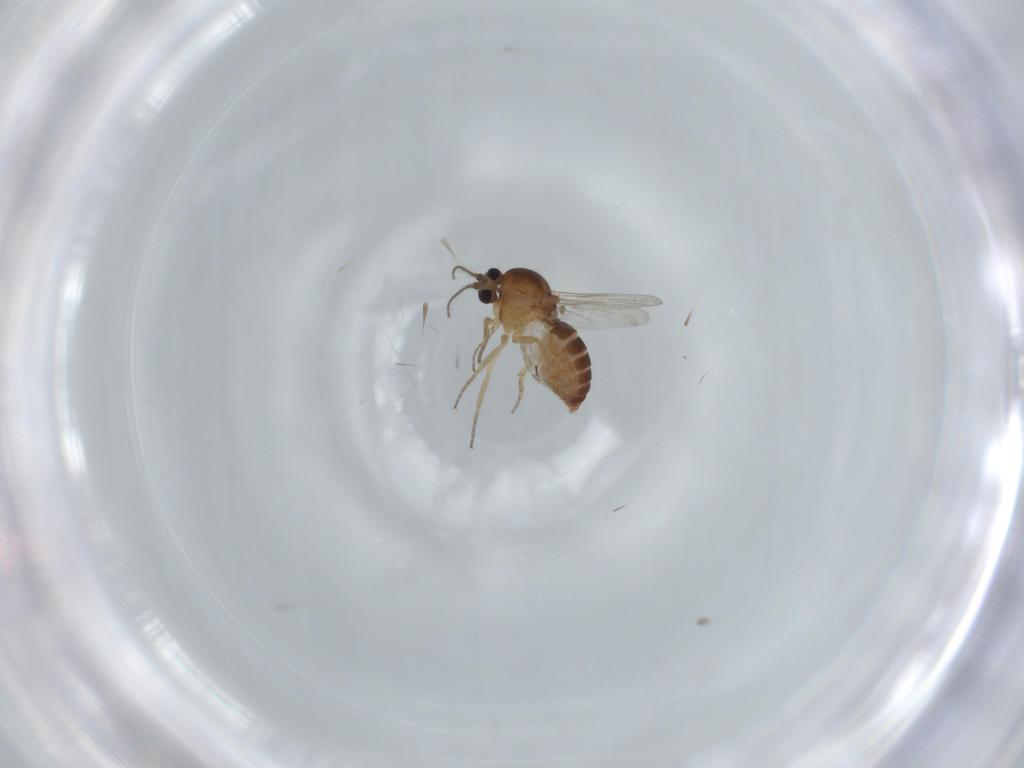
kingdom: Animalia
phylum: Arthropoda
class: Insecta
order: Diptera
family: Ceratopogonidae
